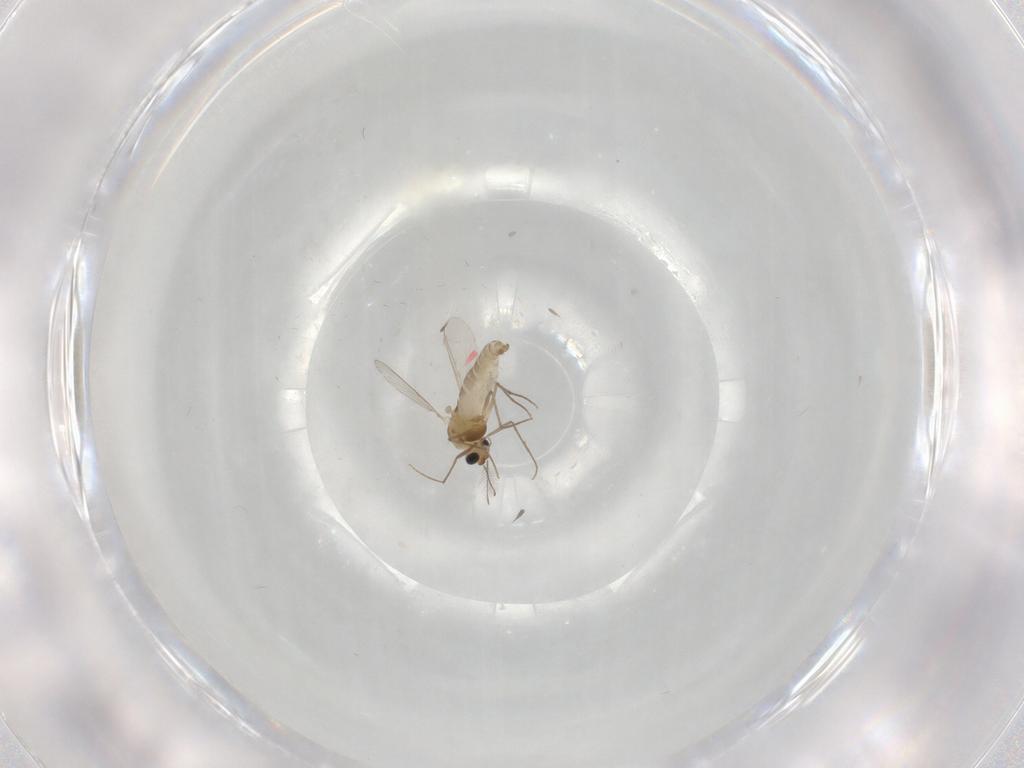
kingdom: Animalia
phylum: Arthropoda
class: Insecta
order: Diptera
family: Chironomidae
